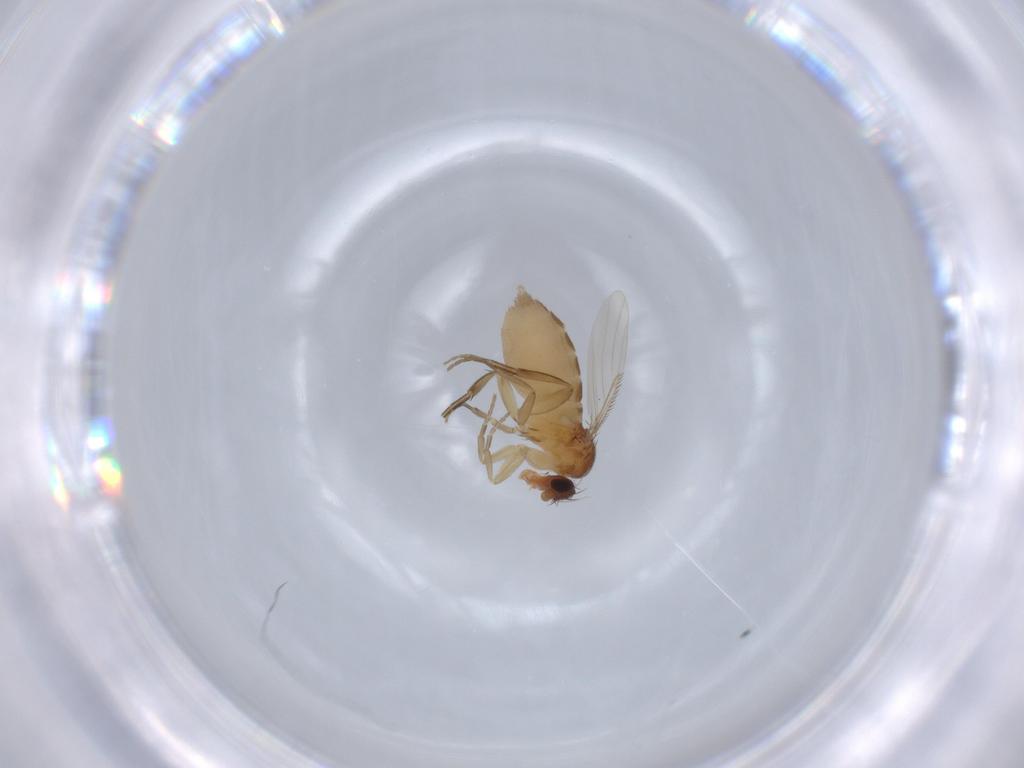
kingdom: Animalia
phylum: Arthropoda
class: Insecta
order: Diptera
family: Phoridae
